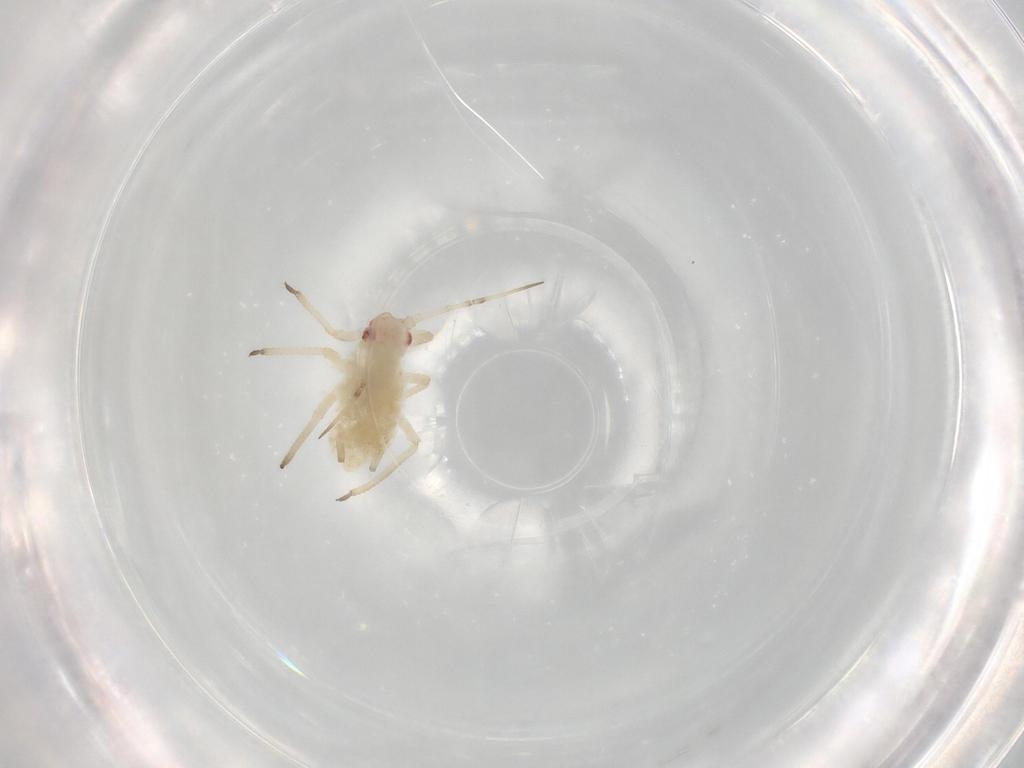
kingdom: Animalia
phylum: Arthropoda
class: Insecta
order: Hemiptera
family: Aphididae
